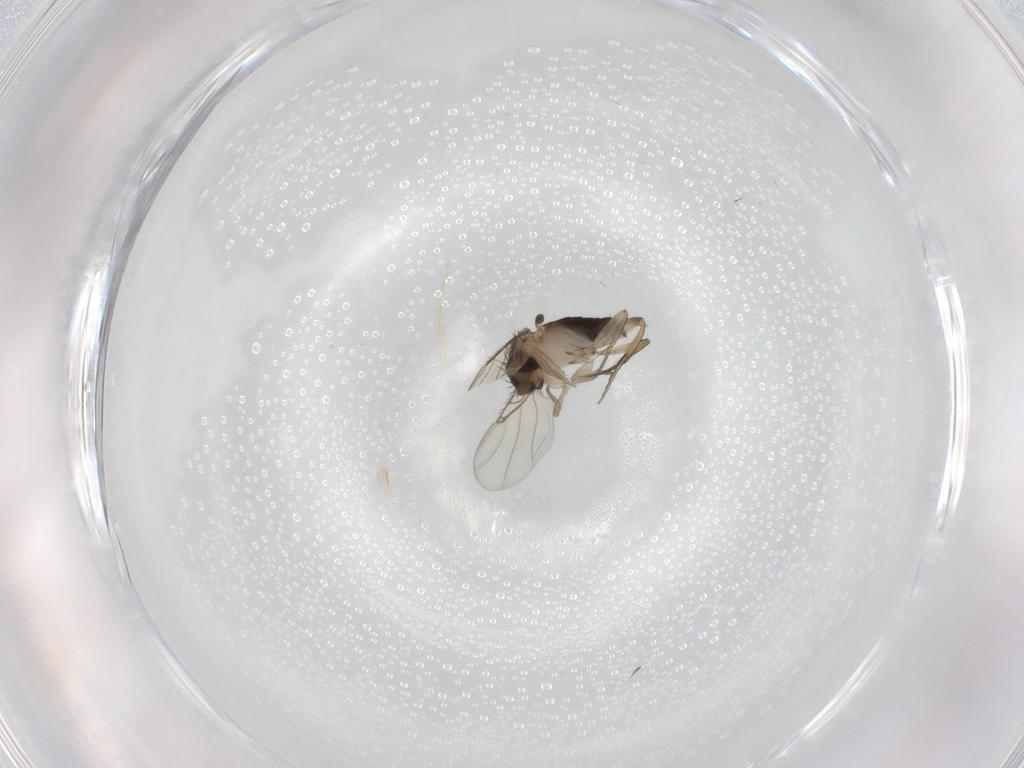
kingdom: Animalia
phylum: Arthropoda
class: Insecta
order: Diptera
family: Phoridae
